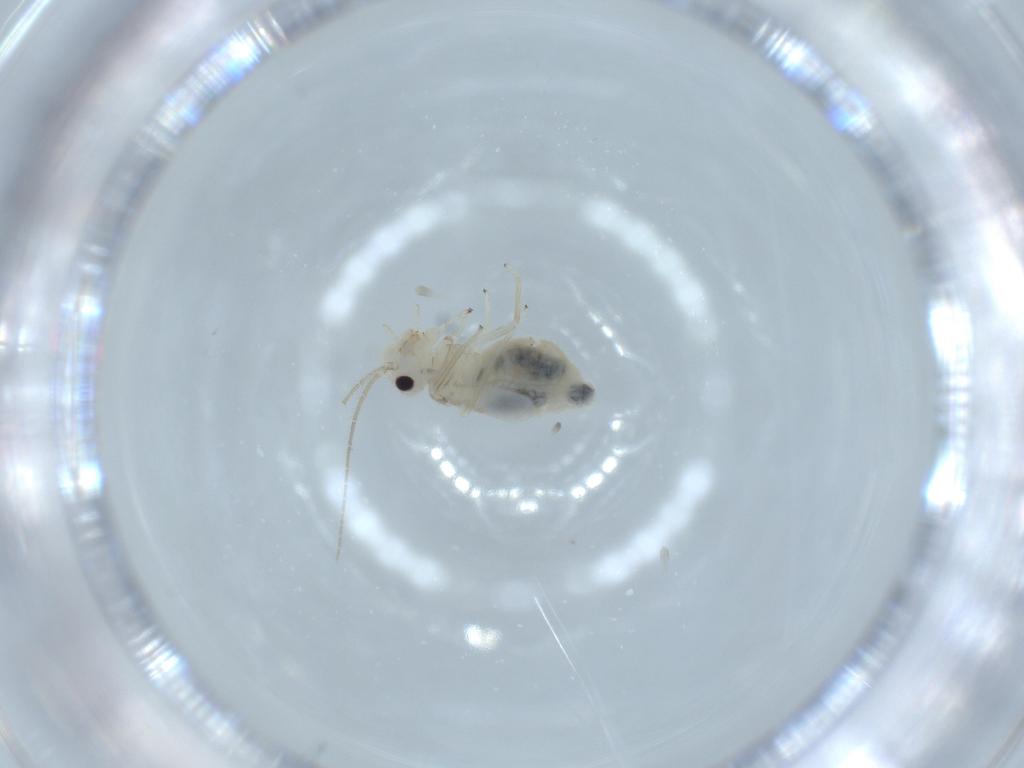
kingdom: Animalia
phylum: Arthropoda
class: Insecta
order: Psocodea
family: Caeciliusidae
